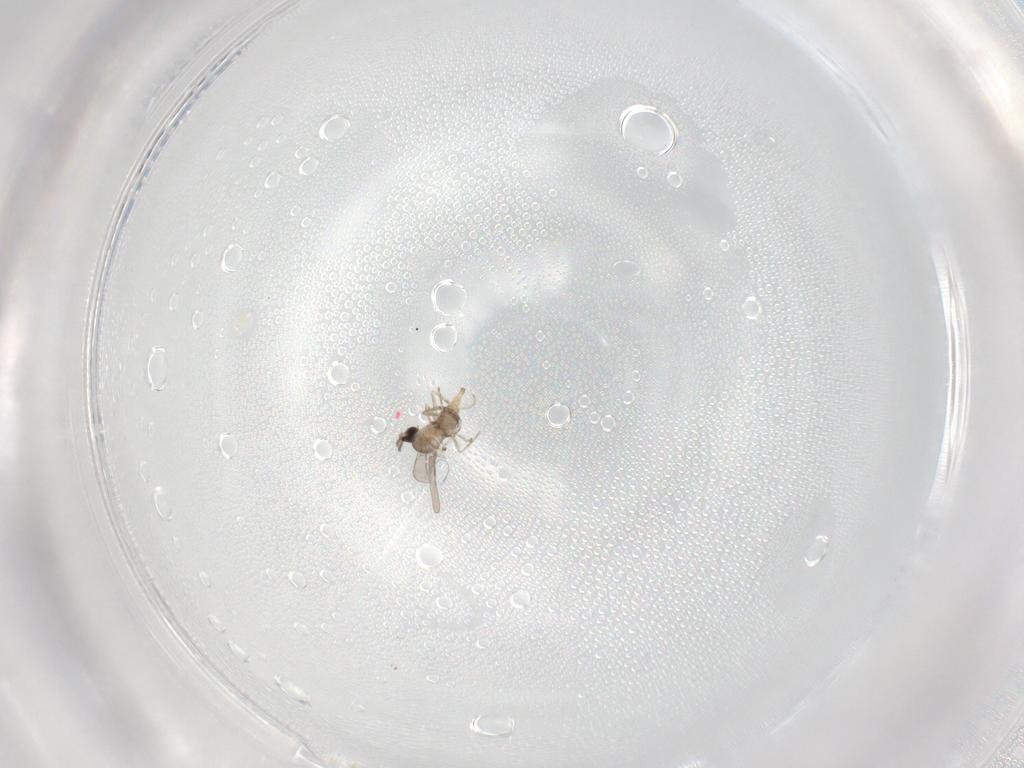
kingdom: Animalia
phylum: Arthropoda
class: Insecta
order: Diptera
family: Cecidomyiidae
